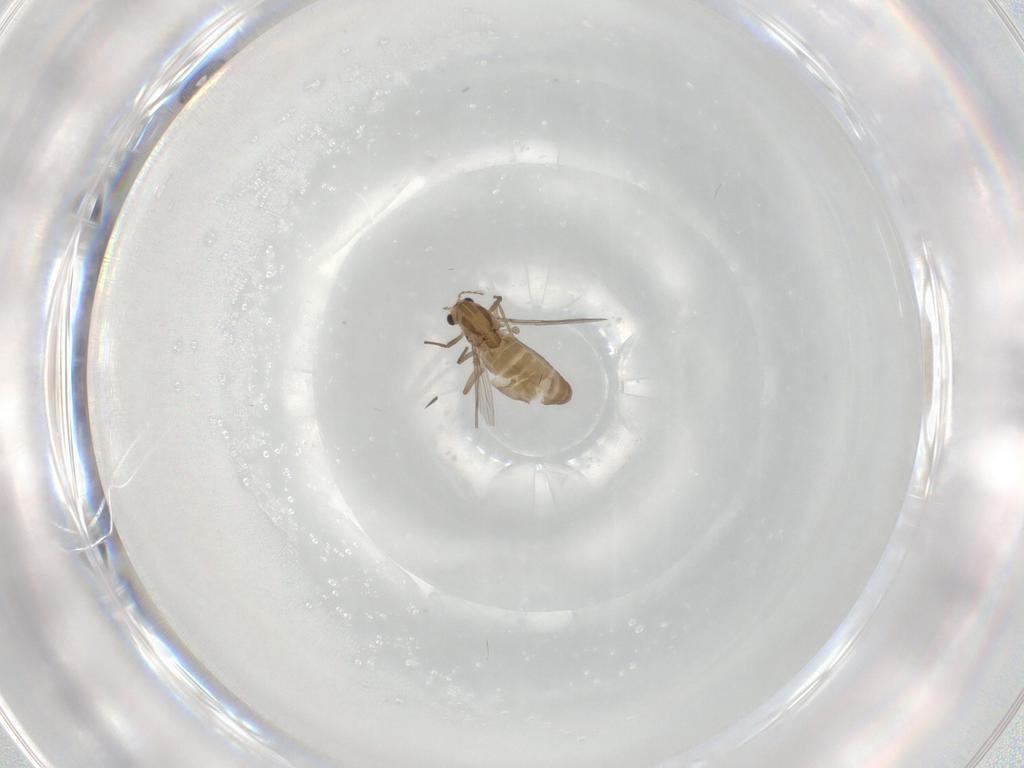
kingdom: Animalia
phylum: Arthropoda
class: Insecta
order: Diptera
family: Chironomidae
